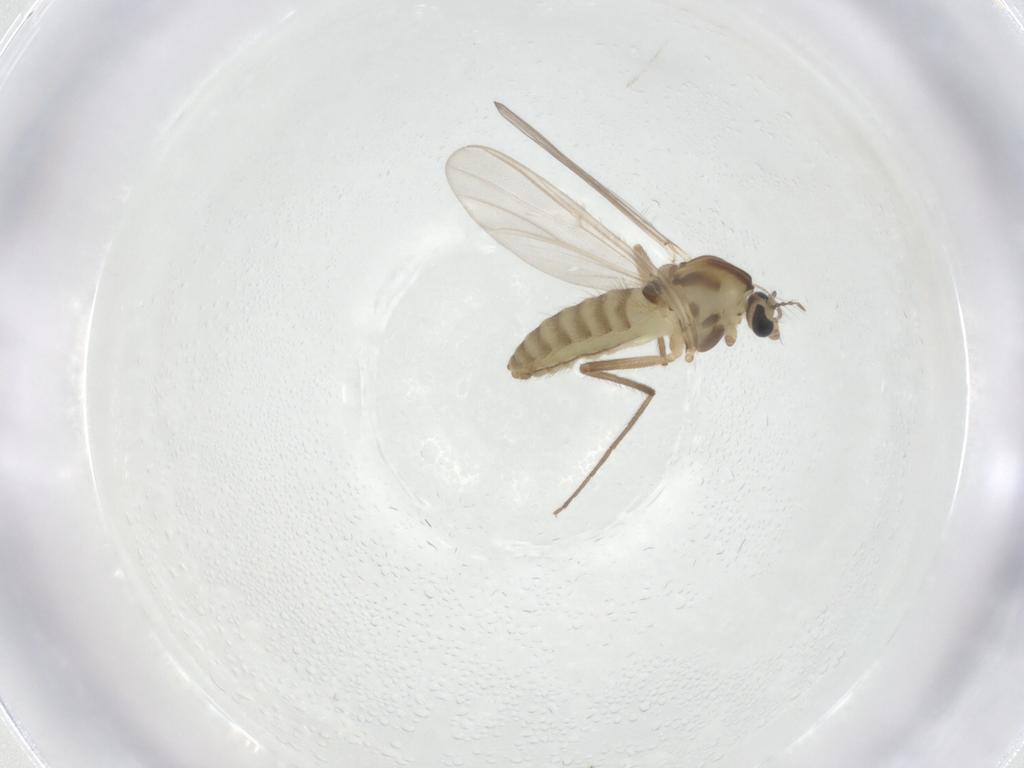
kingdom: Animalia
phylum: Arthropoda
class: Insecta
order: Diptera
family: Chironomidae
